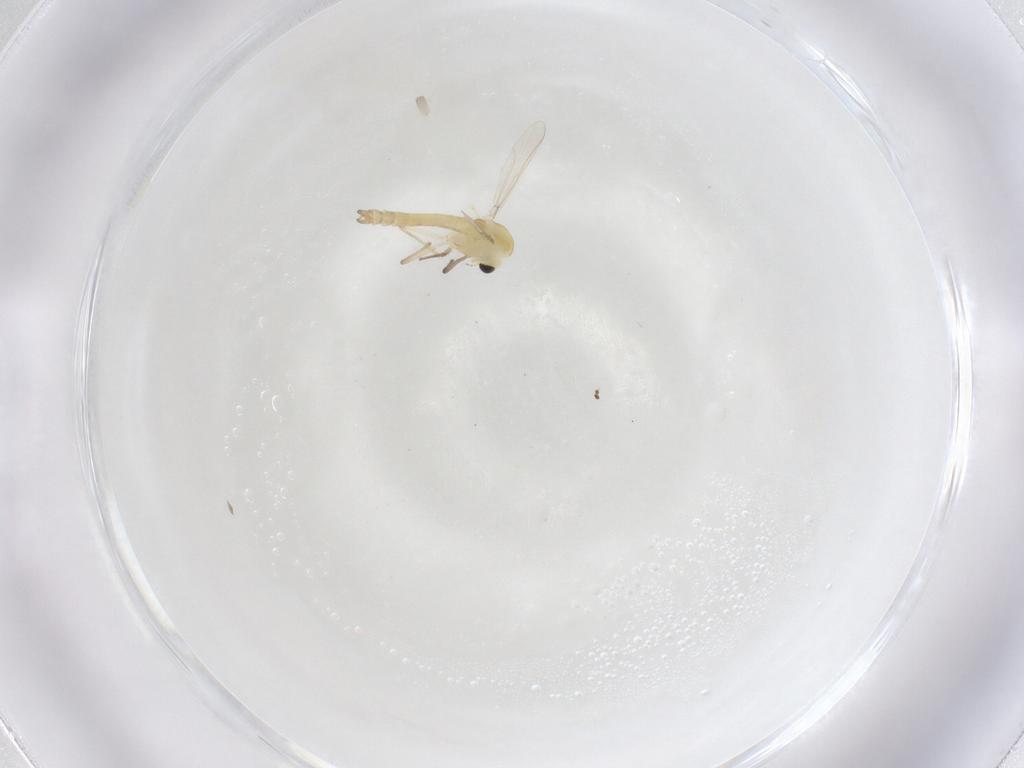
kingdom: Animalia
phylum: Arthropoda
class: Insecta
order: Diptera
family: Chironomidae
